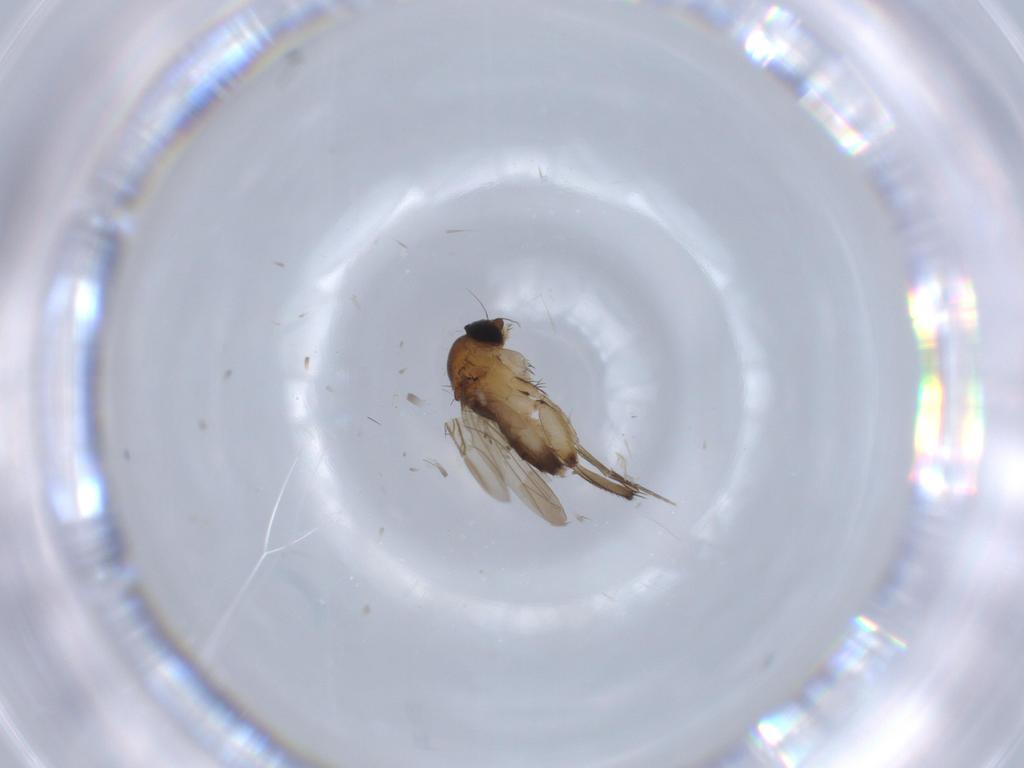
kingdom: Animalia
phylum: Arthropoda
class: Insecta
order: Diptera
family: Phoridae
